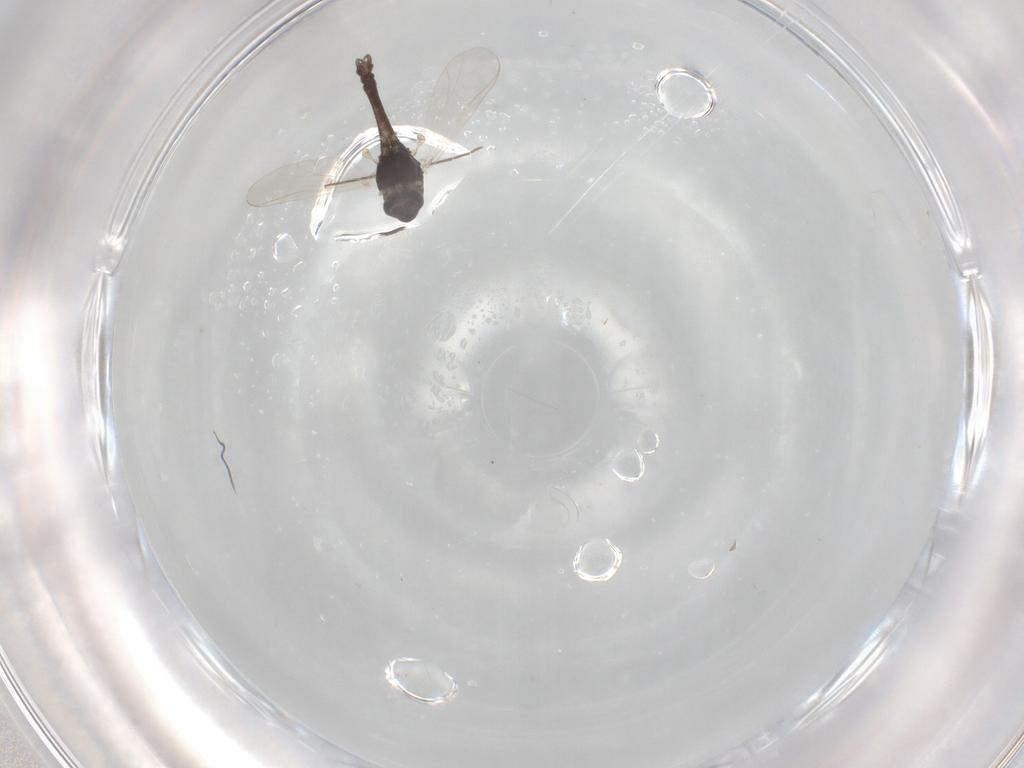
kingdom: Animalia
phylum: Arthropoda
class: Insecta
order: Diptera
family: Chironomidae
